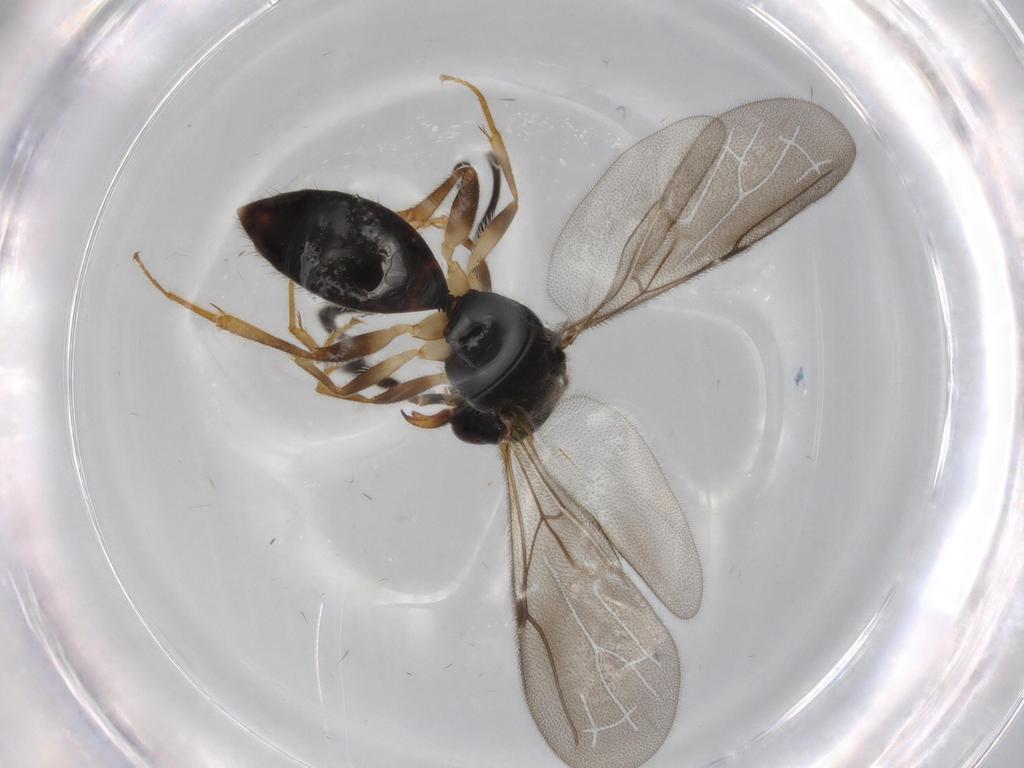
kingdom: Animalia
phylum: Arthropoda
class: Insecta
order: Hymenoptera
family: Bethylidae
